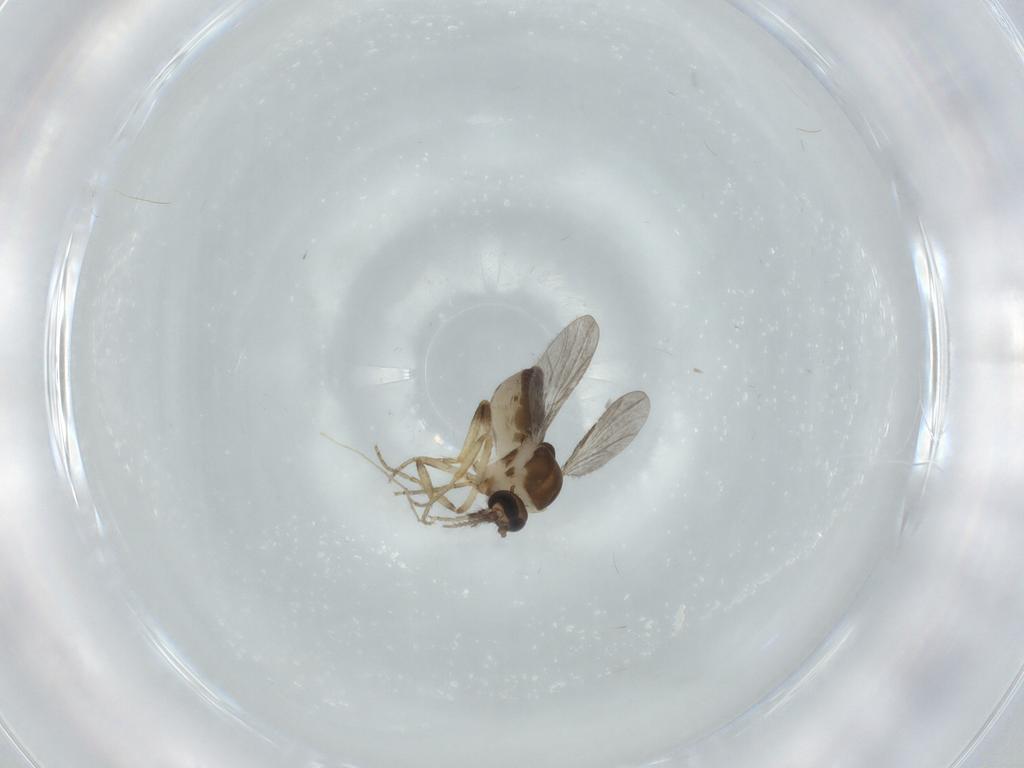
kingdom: Animalia
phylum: Arthropoda
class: Insecta
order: Diptera
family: Ceratopogonidae
